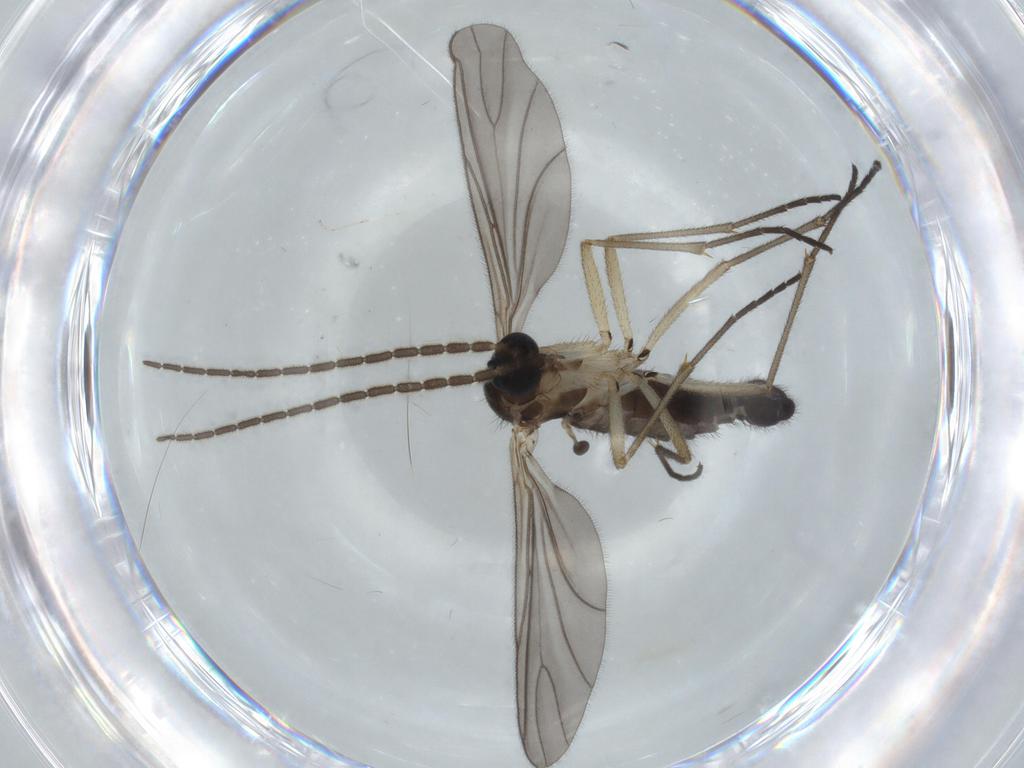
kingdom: Animalia
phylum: Arthropoda
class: Insecta
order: Diptera
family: Sciaridae
